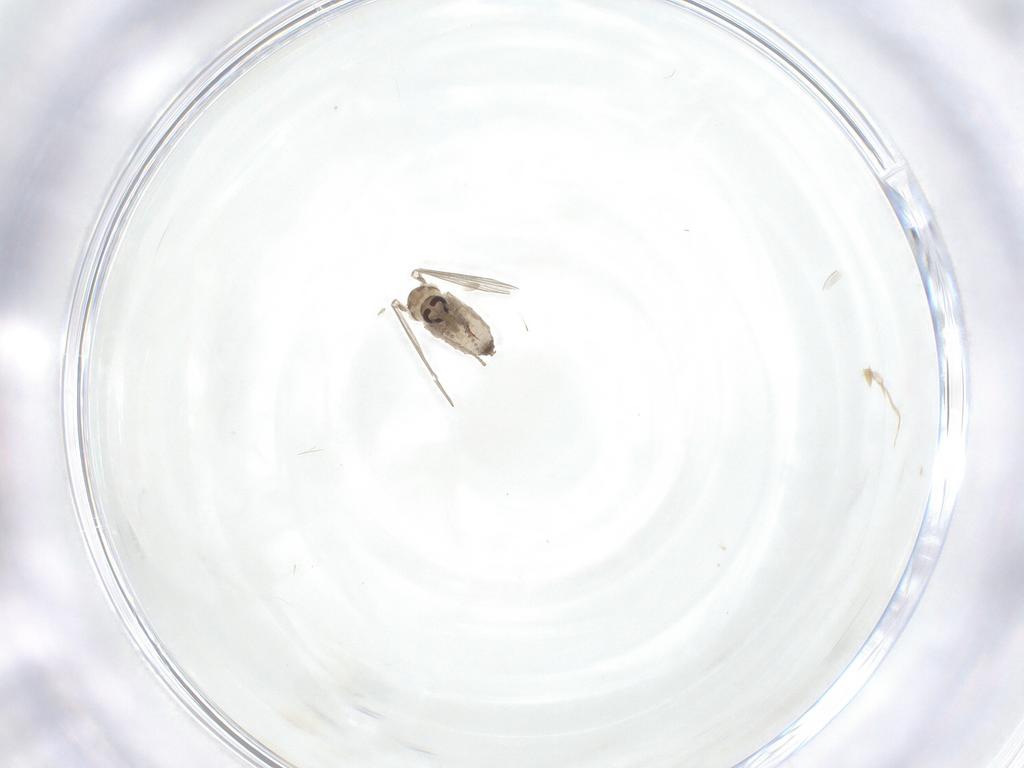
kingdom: Animalia
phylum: Arthropoda
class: Insecta
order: Diptera
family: Psychodidae
